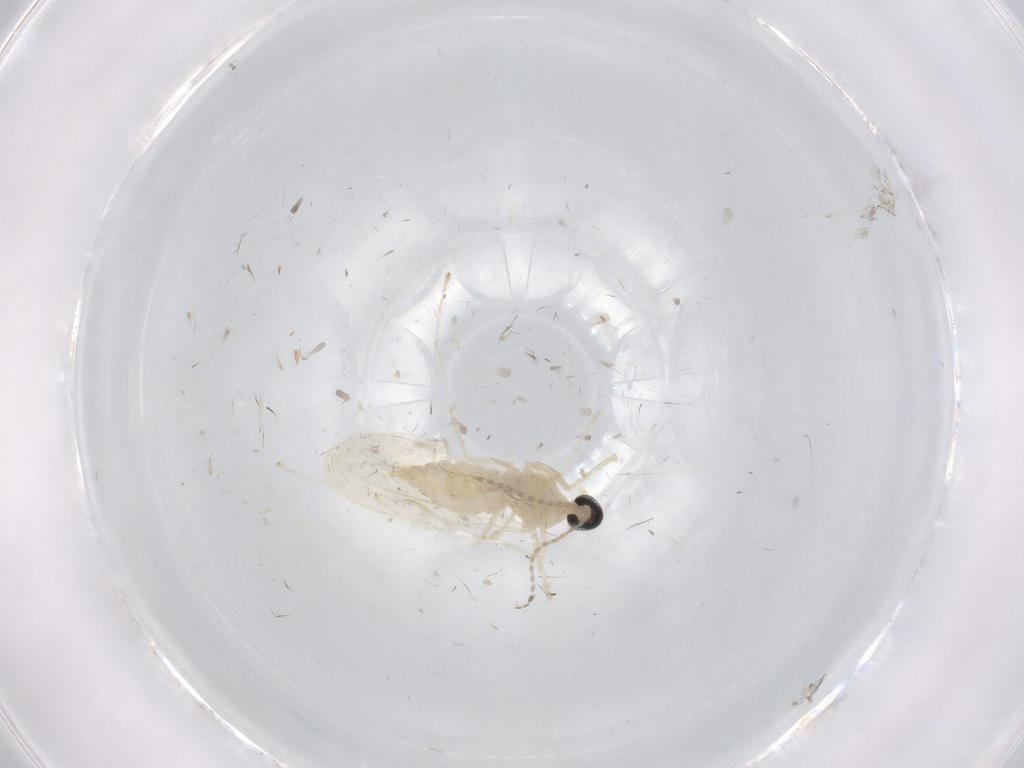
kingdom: Animalia
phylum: Arthropoda
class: Insecta
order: Diptera
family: Cecidomyiidae
